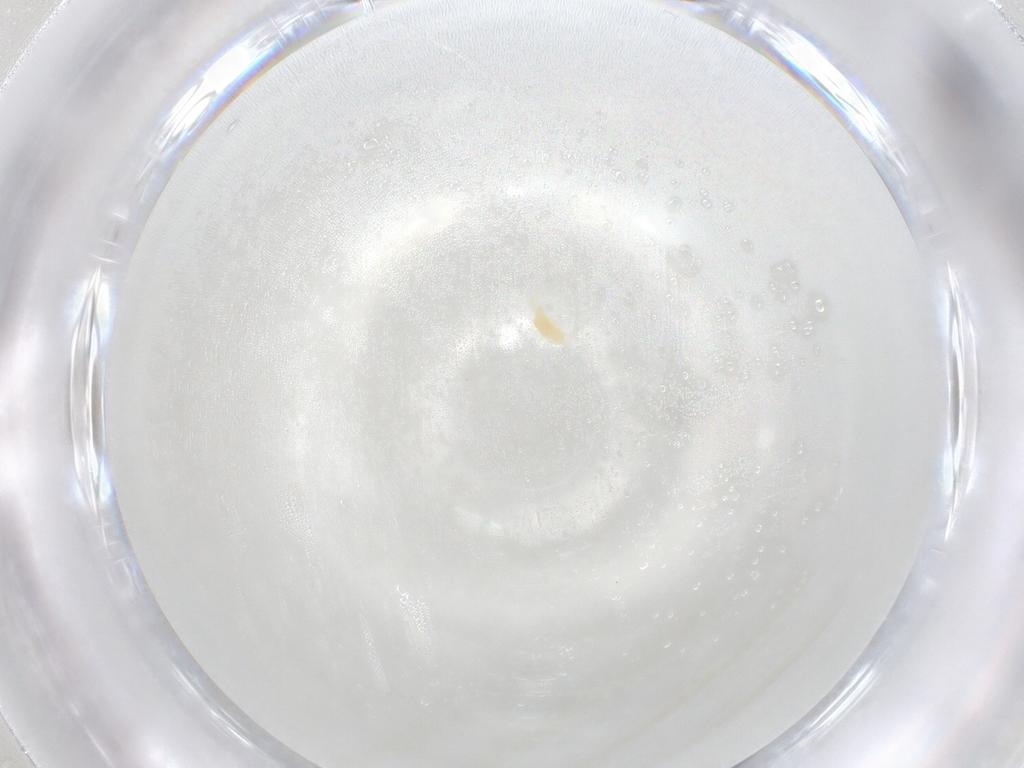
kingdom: Animalia
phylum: Arthropoda
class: Arachnida
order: Trombidiformes
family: Tetranychidae
